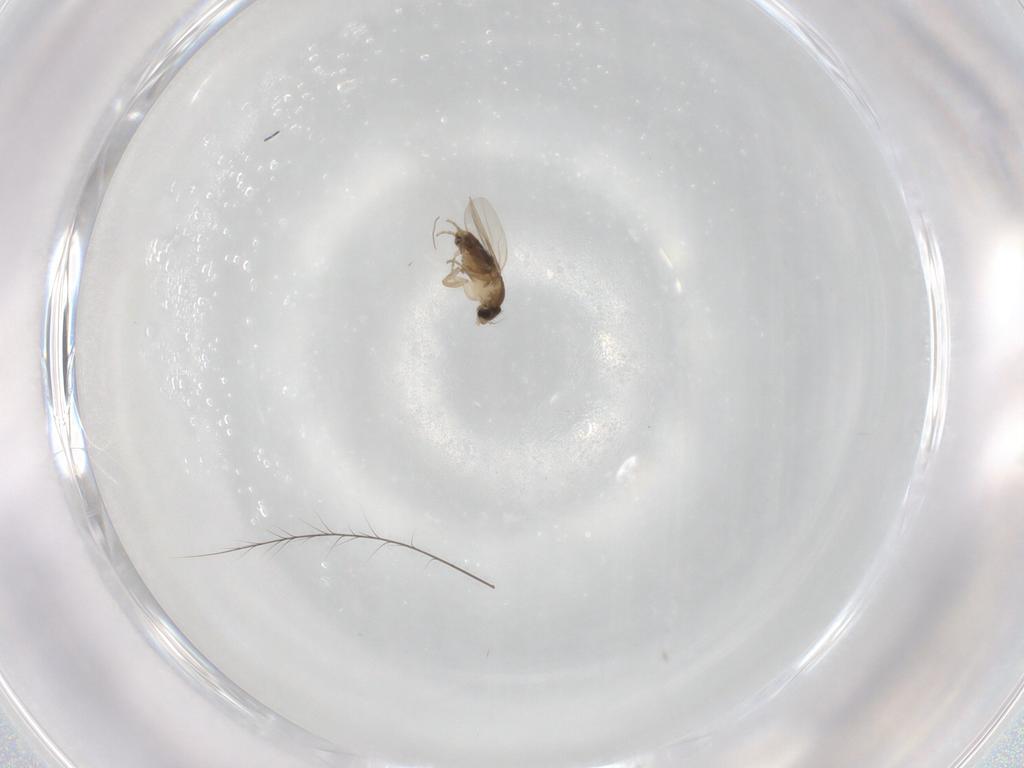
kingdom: Animalia
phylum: Arthropoda
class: Insecta
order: Diptera
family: Phoridae
